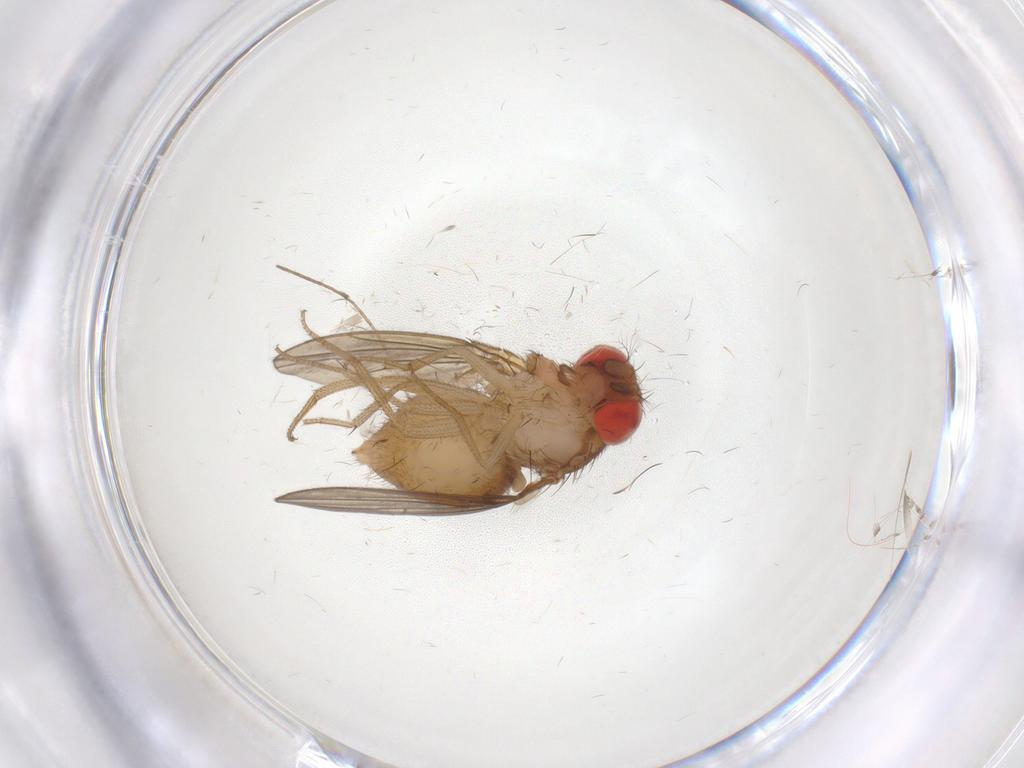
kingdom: Animalia
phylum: Arthropoda
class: Insecta
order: Diptera
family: Drosophilidae
